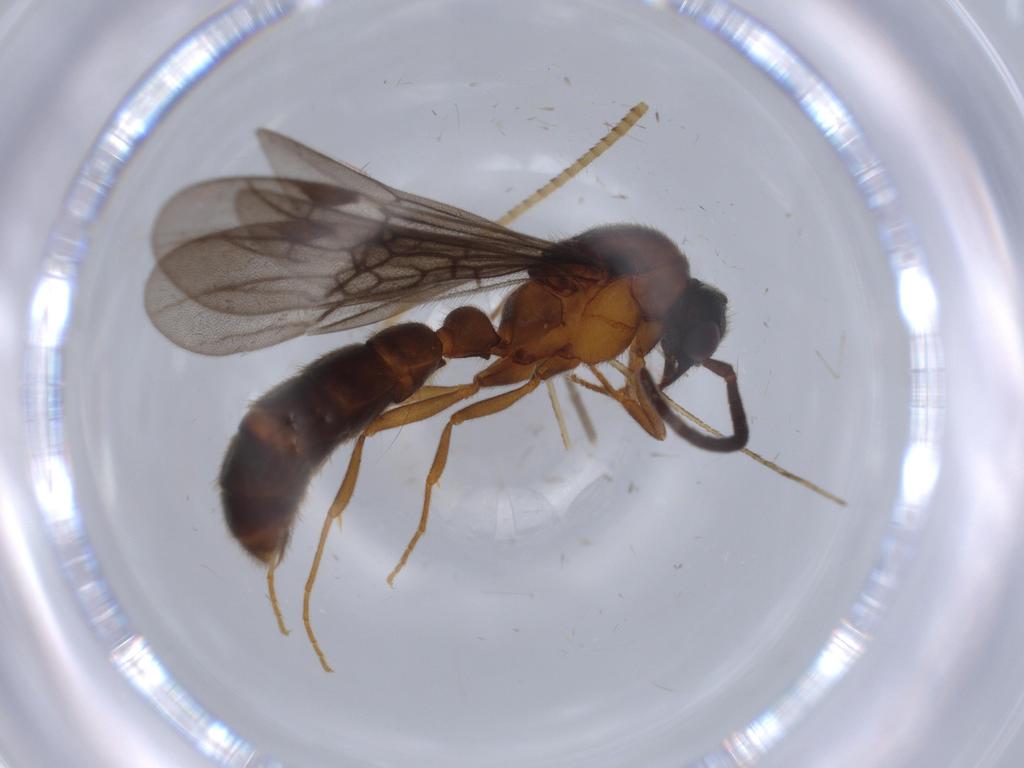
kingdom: Animalia
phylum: Arthropoda
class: Insecta
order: Hymenoptera
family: Formicidae
